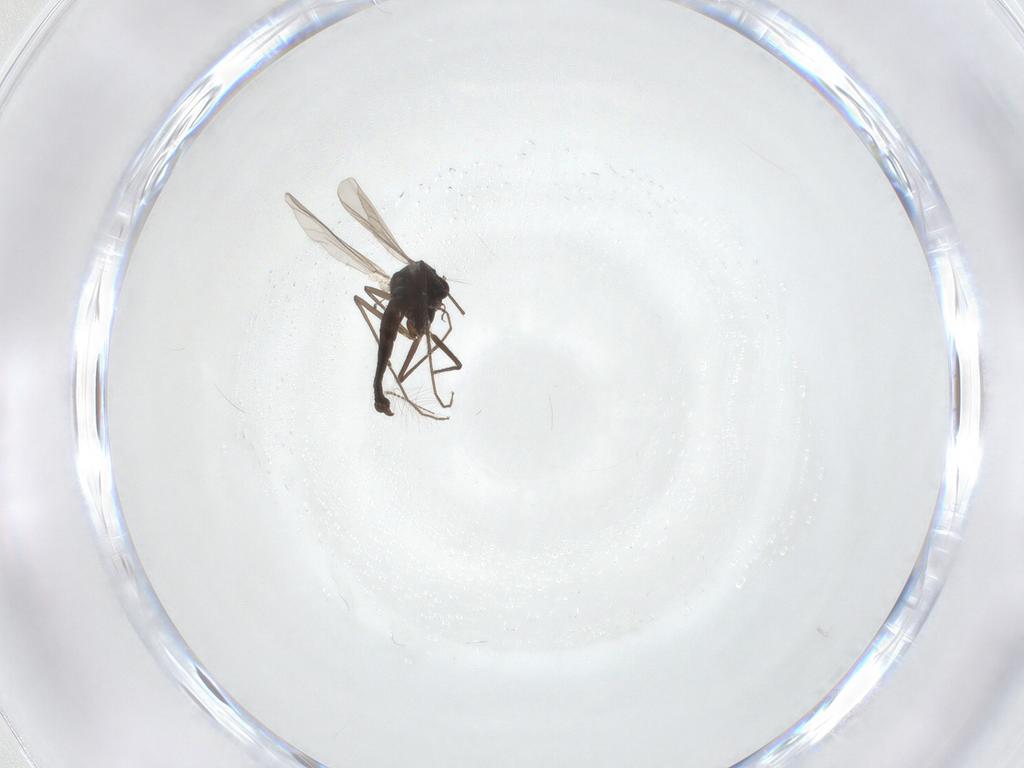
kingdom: Animalia
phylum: Arthropoda
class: Insecta
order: Diptera
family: Chironomidae
